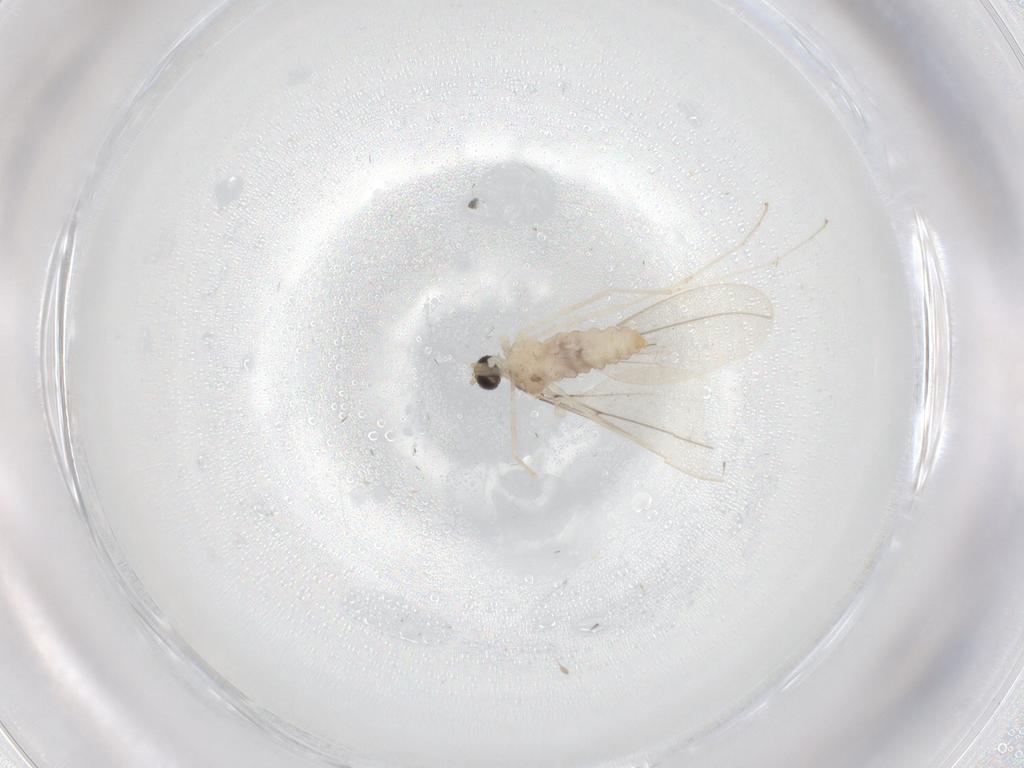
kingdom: Animalia
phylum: Arthropoda
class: Insecta
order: Diptera
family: Cecidomyiidae
